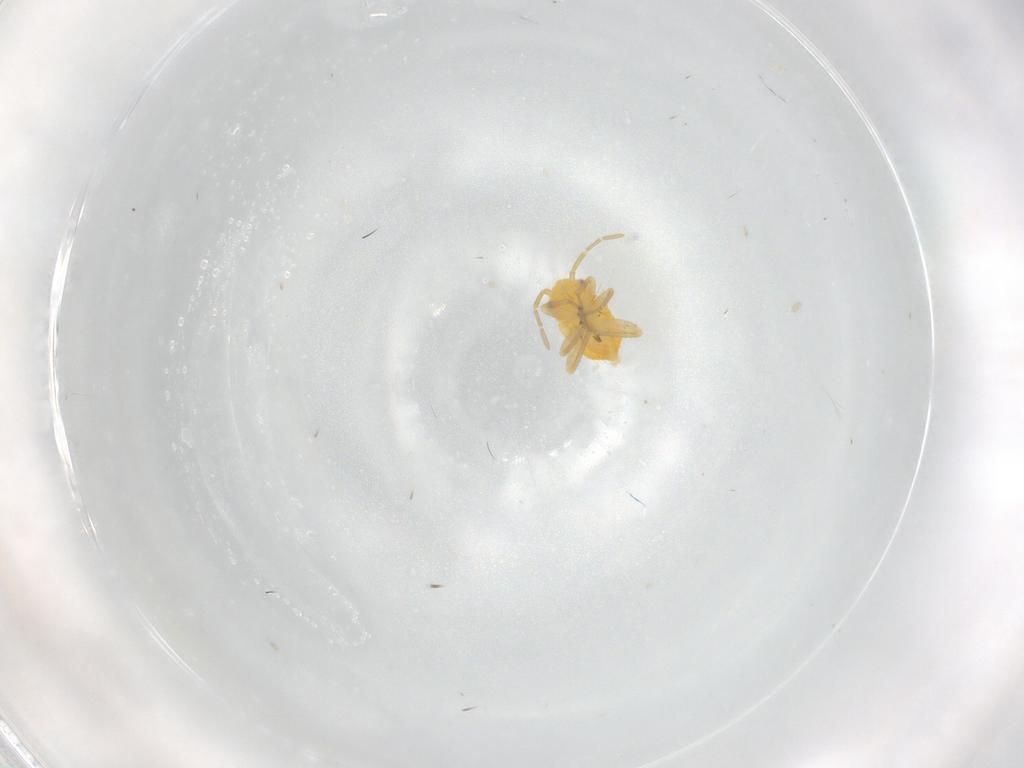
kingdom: Animalia
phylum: Arthropoda
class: Insecta
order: Hemiptera
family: Miridae
